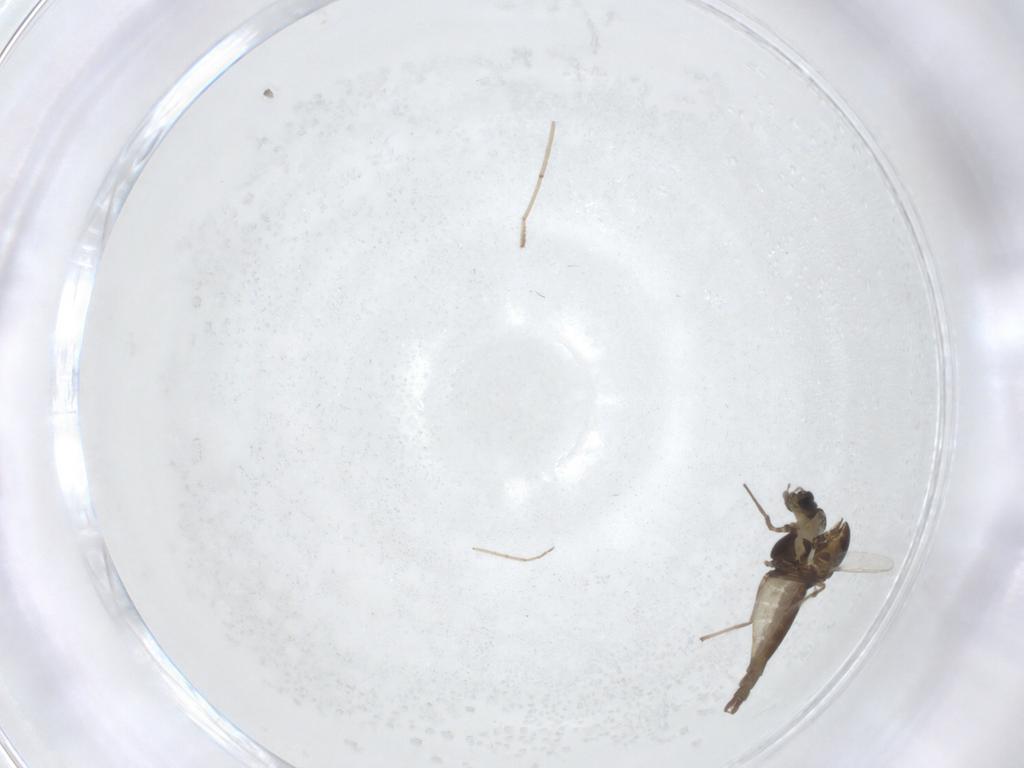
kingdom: Animalia
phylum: Arthropoda
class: Insecta
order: Diptera
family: Cecidomyiidae
